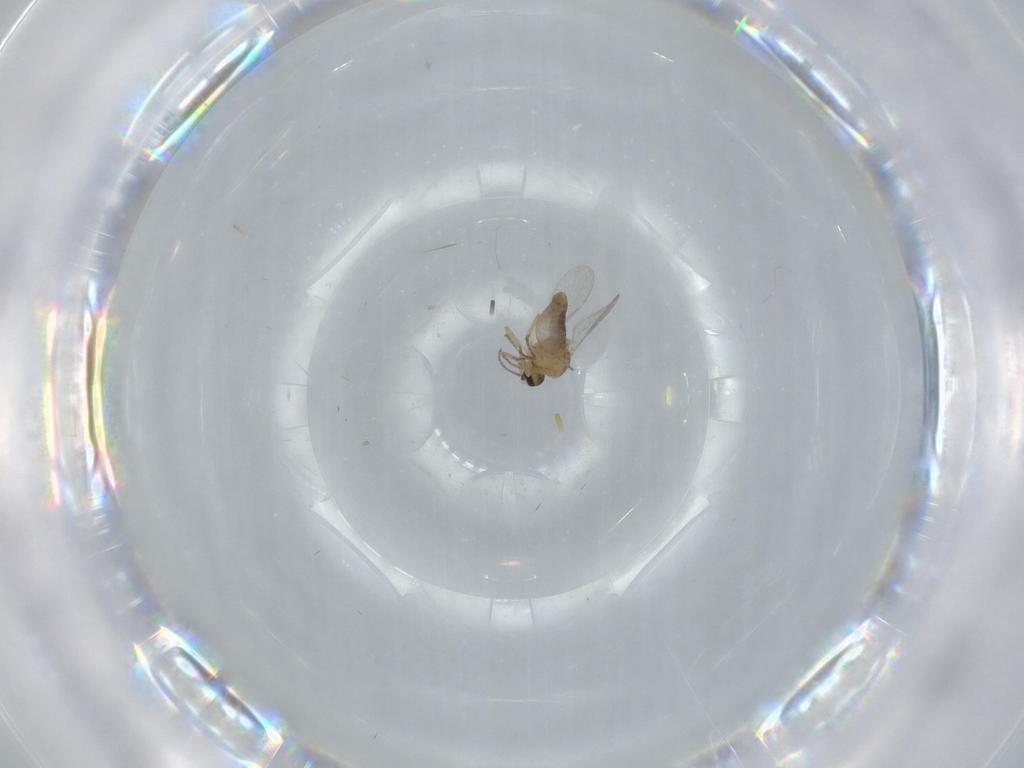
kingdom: Animalia
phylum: Arthropoda
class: Insecta
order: Diptera
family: Ceratopogonidae
